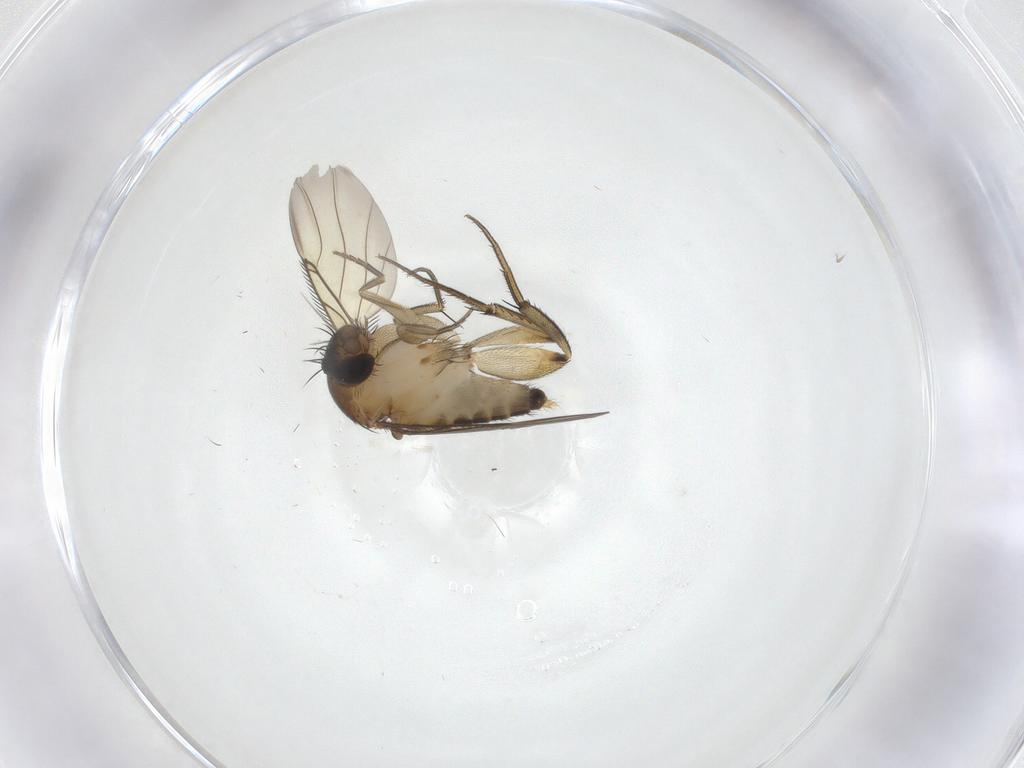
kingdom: Animalia
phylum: Arthropoda
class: Insecta
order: Diptera
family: Phoridae
